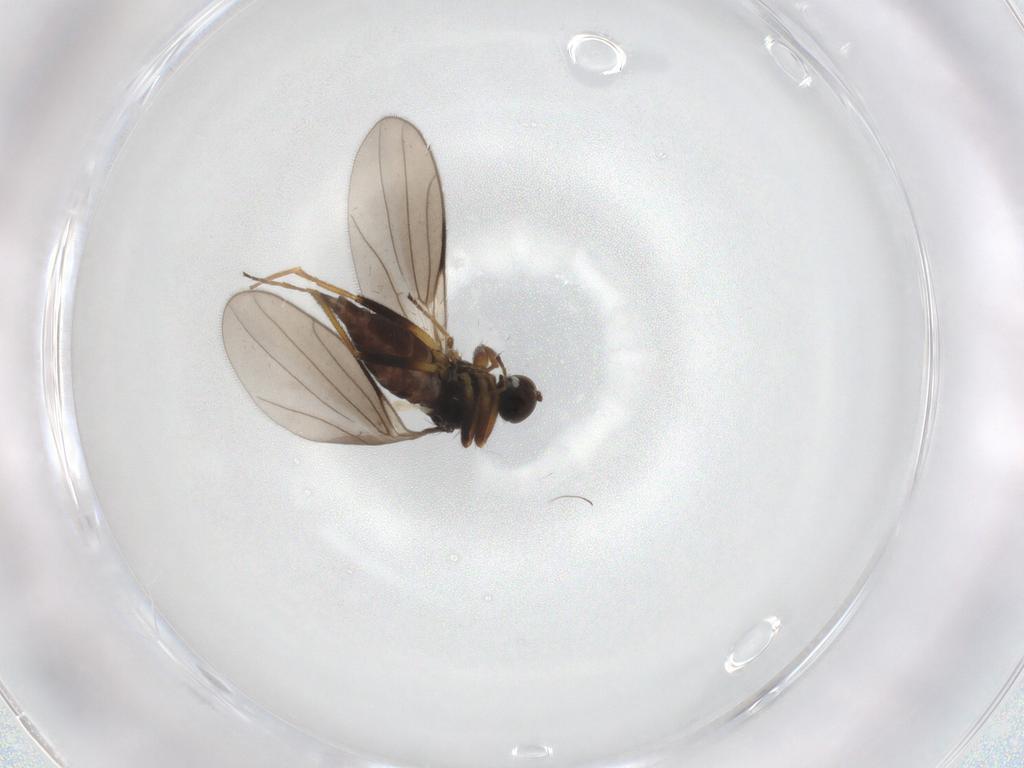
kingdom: Animalia
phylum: Arthropoda
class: Insecta
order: Diptera
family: Hybotidae
